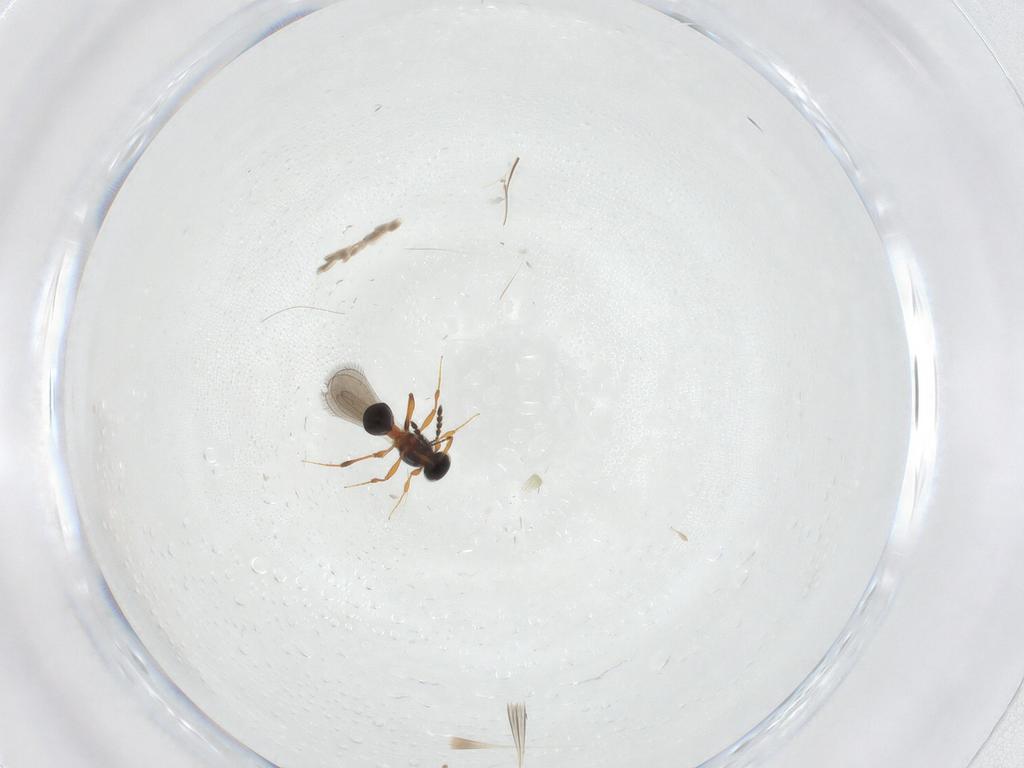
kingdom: Animalia
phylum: Arthropoda
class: Insecta
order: Hymenoptera
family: Platygastridae
